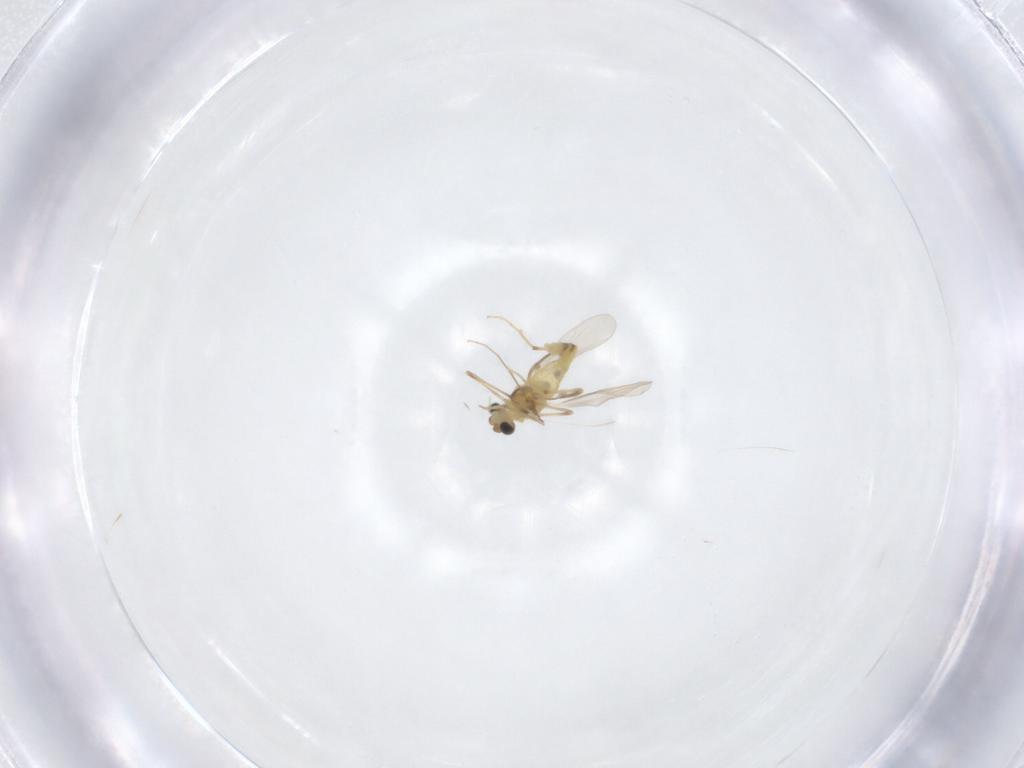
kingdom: Animalia
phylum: Arthropoda
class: Insecta
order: Diptera
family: Chironomidae
